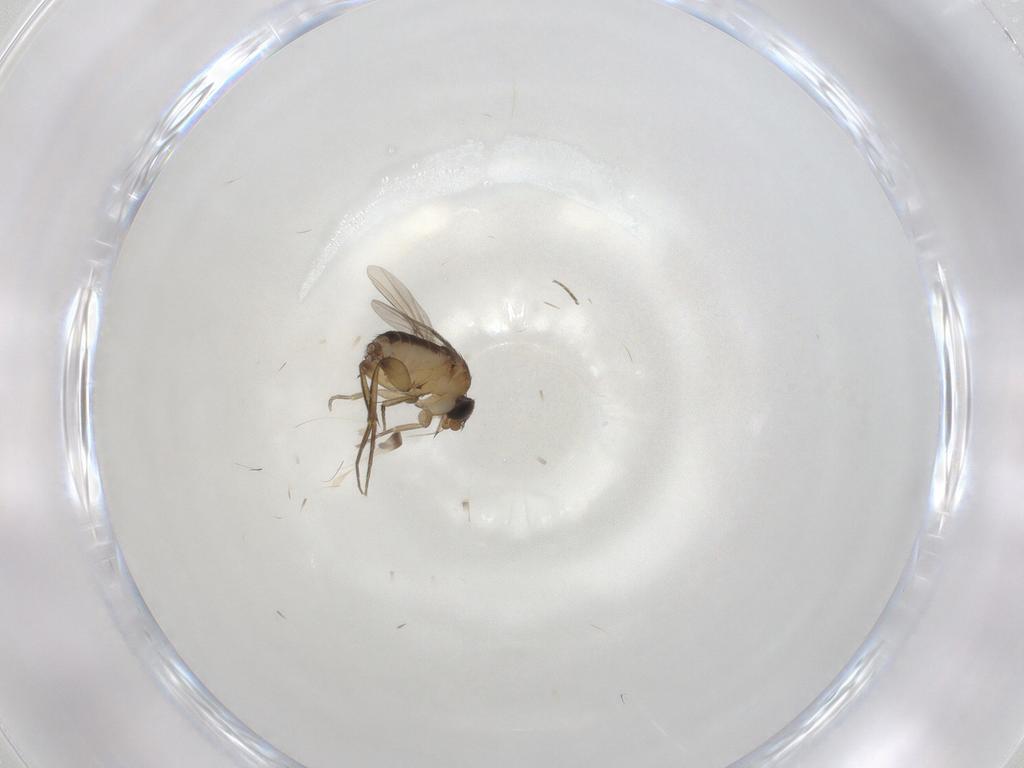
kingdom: Animalia
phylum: Arthropoda
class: Insecta
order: Diptera
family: Phoridae
